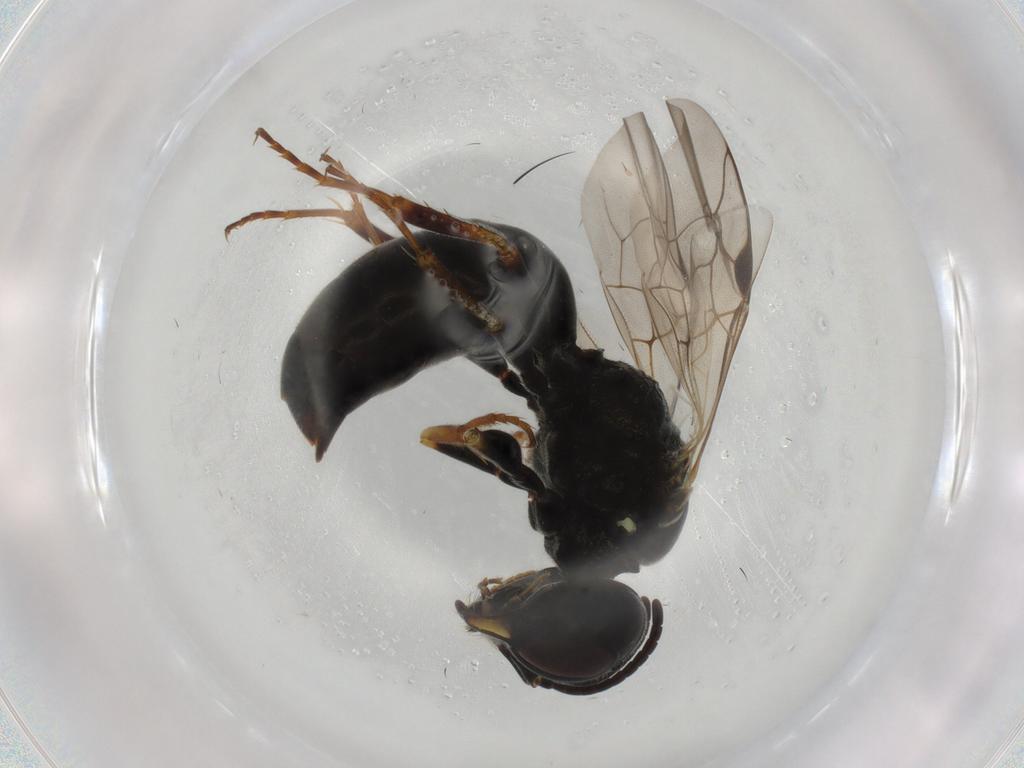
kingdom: Animalia
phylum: Arthropoda
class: Insecta
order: Hymenoptera
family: Crabronidae
